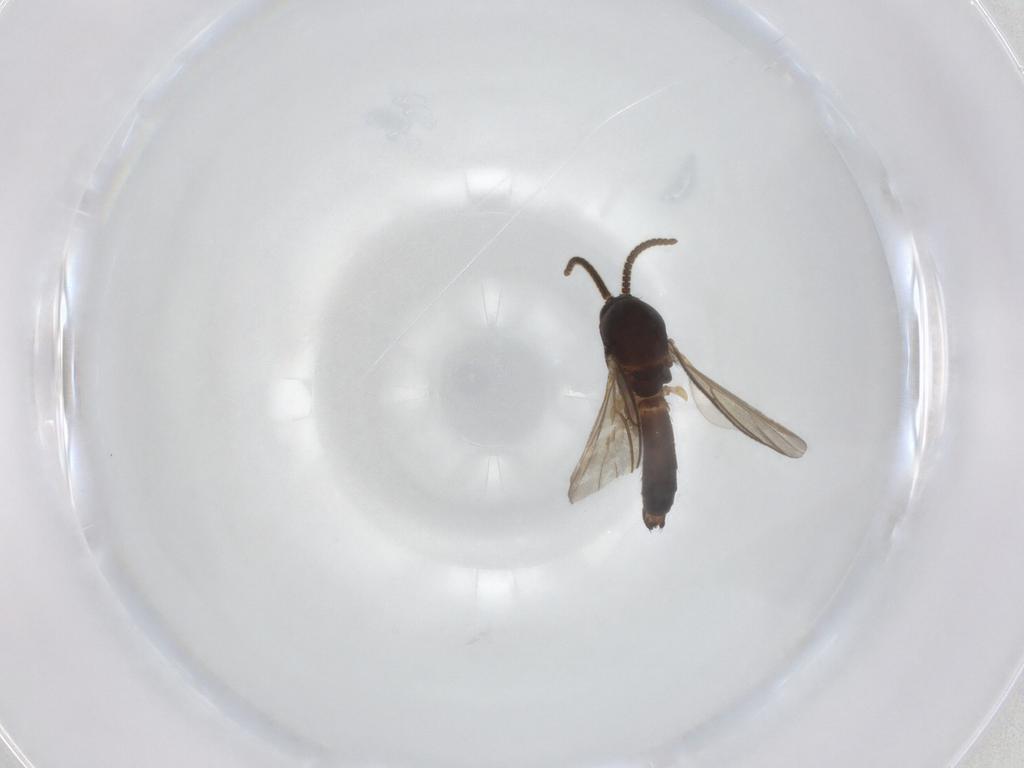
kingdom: Animalia
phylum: Arthropoda
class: Insecta
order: Diptera
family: Mycetophilidae
